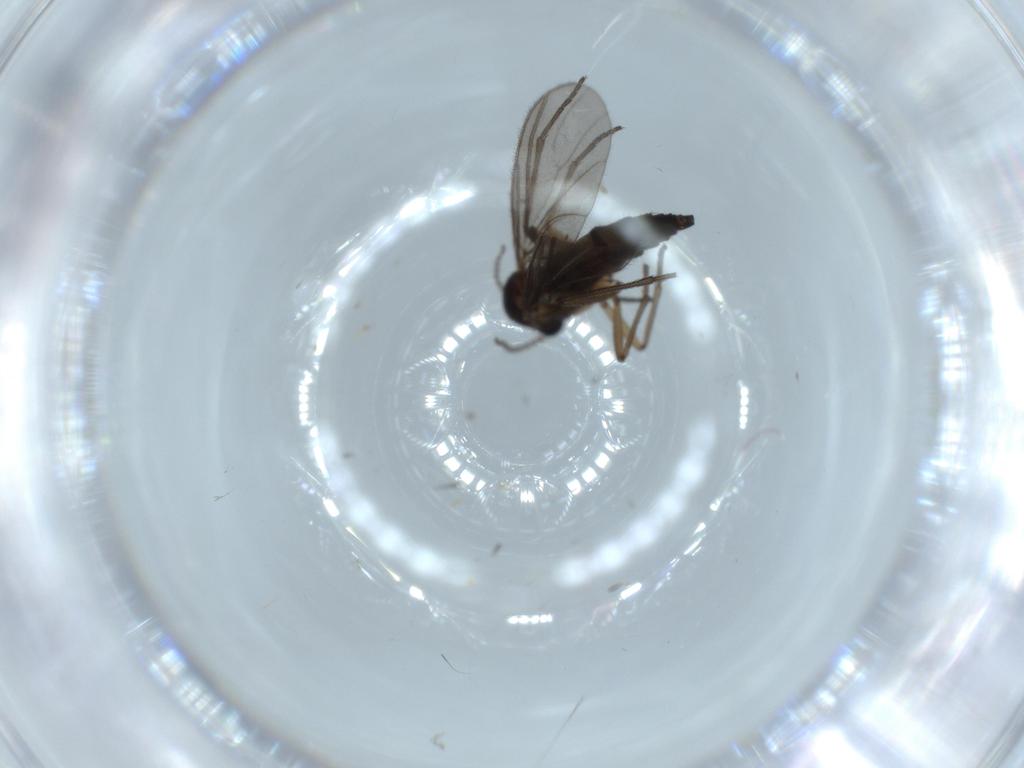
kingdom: Animalia
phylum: Arthropoda
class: Insecta
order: Diptera
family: Sciaridae
